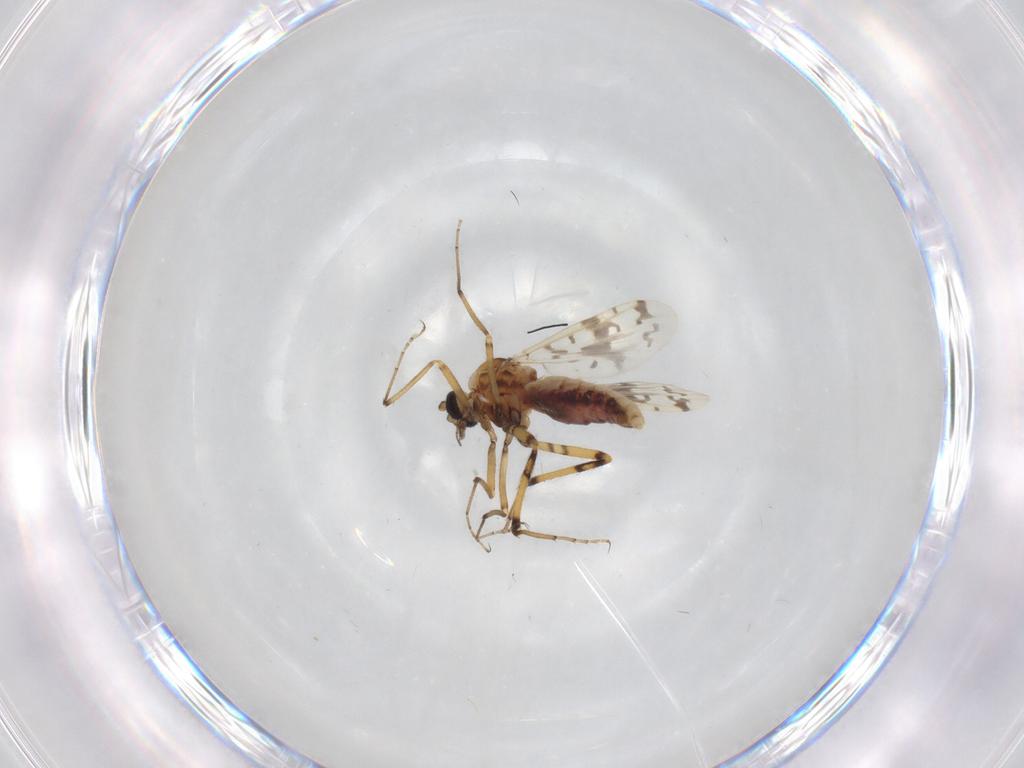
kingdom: Animalia
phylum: Arthropoda
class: Insecta
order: Diptera
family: Ceratopogonidae
